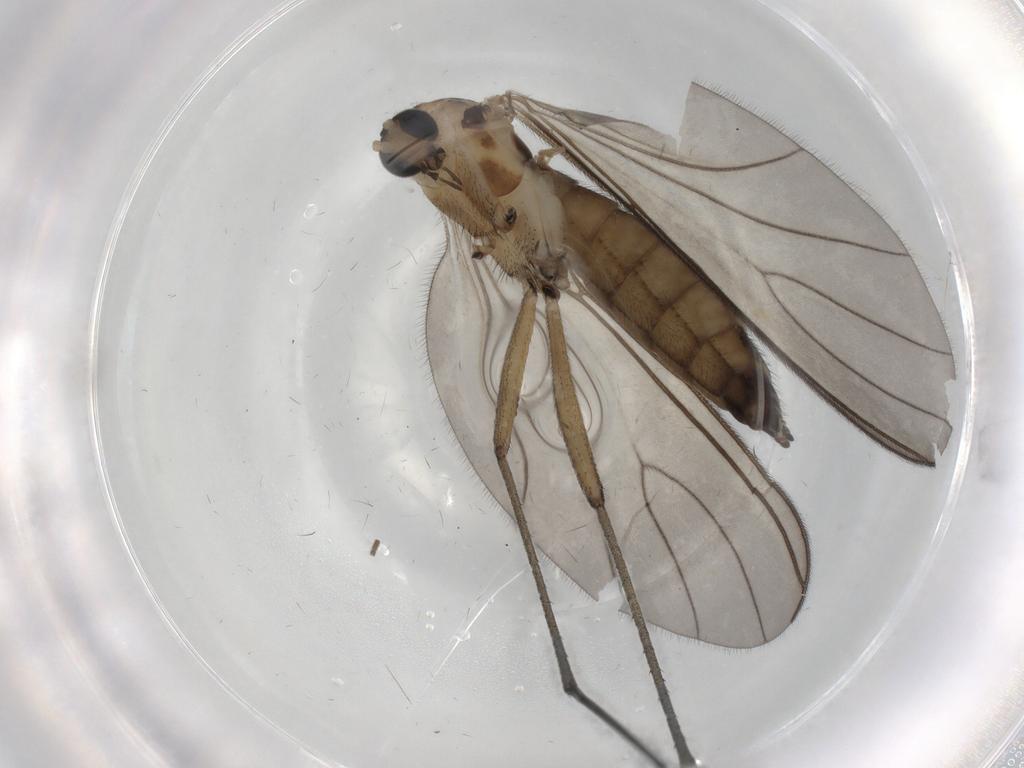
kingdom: Animalia
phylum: Arthropoda
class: Insecta
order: Diptera
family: Sciaridae
